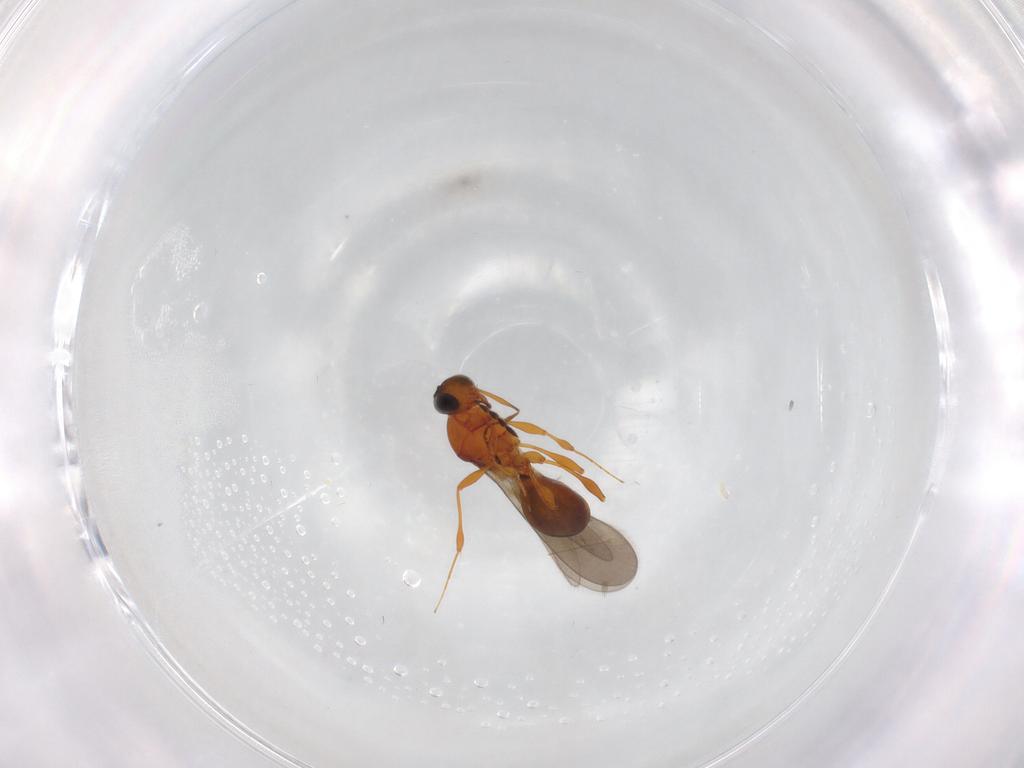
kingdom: Animalia
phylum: Arthropoda
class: Insecta
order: Hymenoptera
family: Platygastridae
